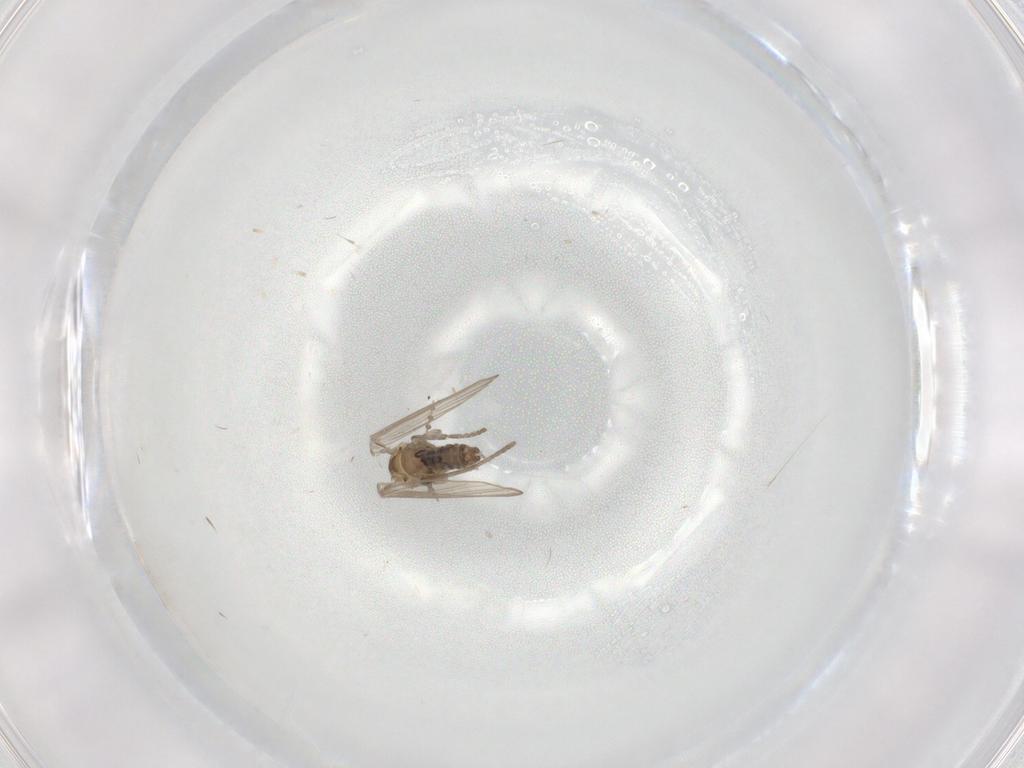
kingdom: Animalia
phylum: Arthropoda
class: Insecta
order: Diptera
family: Psychodidae
